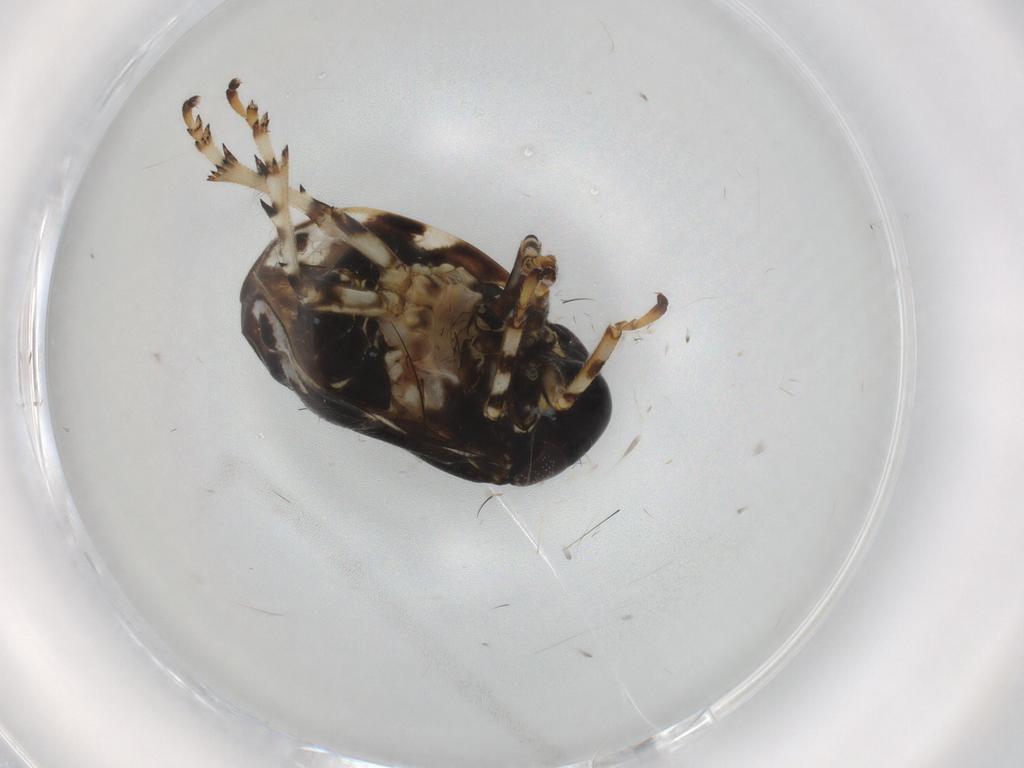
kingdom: Animalia
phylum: Arthropoda
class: Insecta
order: Hemiptera
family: Clastopteridae
